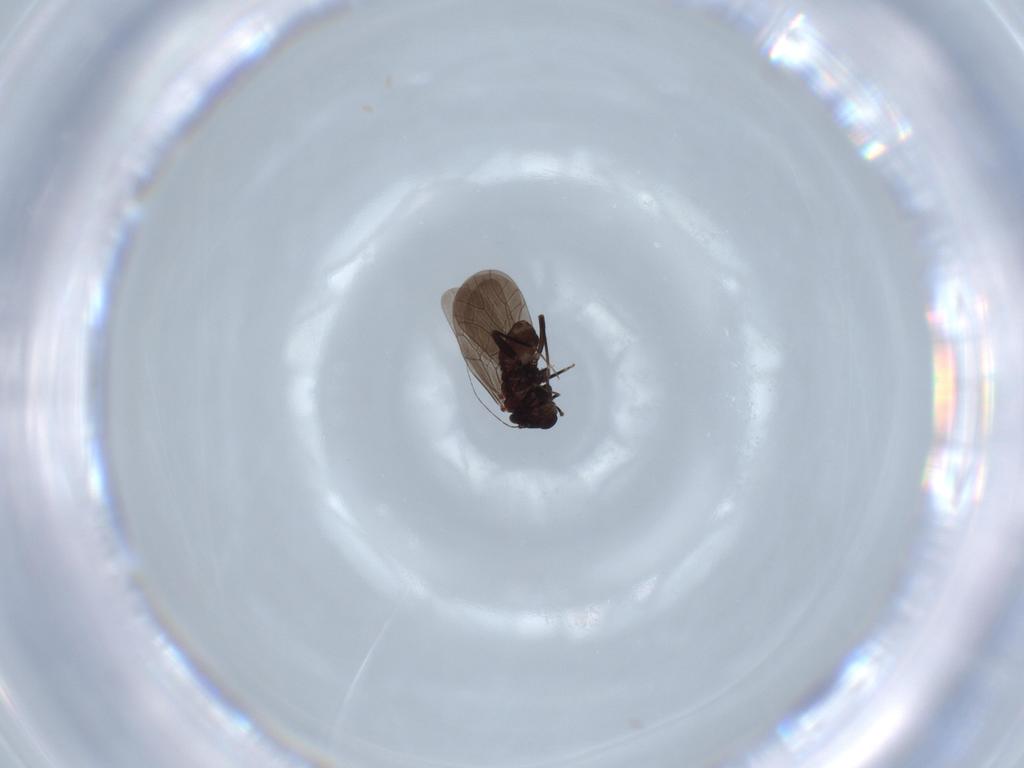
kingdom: Animalia
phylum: Arthropoda
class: Insecta
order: Psocodea
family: Lepidopsocidae
